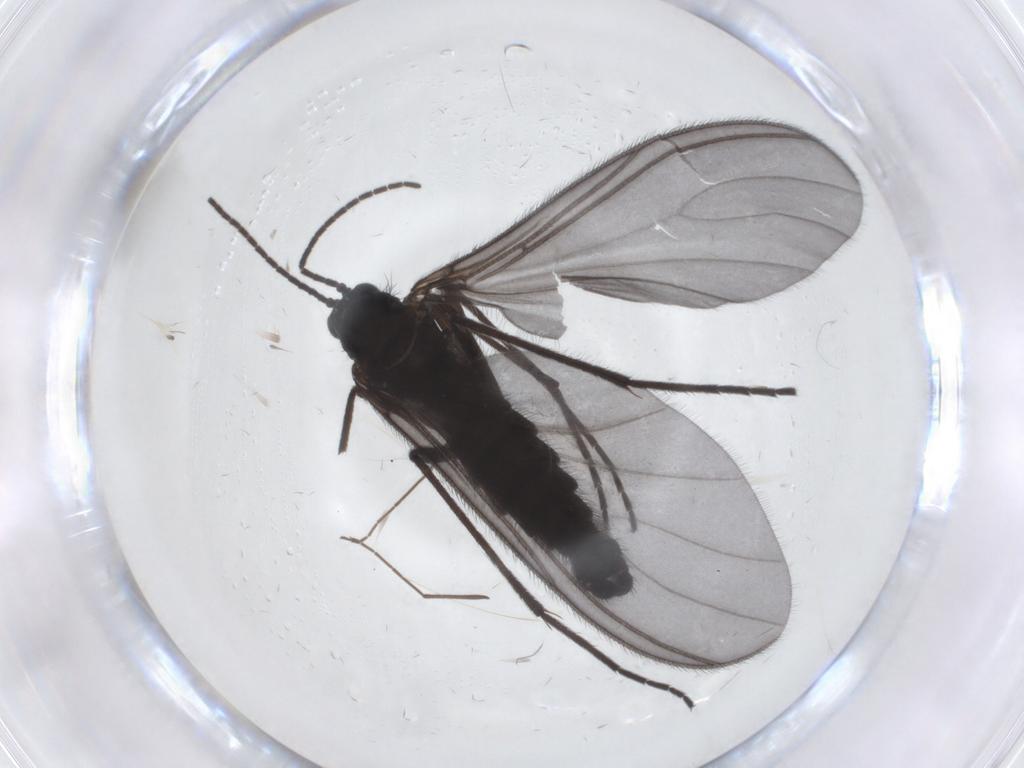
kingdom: Animalia
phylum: Arthropoda
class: Insecta
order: Diptera
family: Sciaridae
